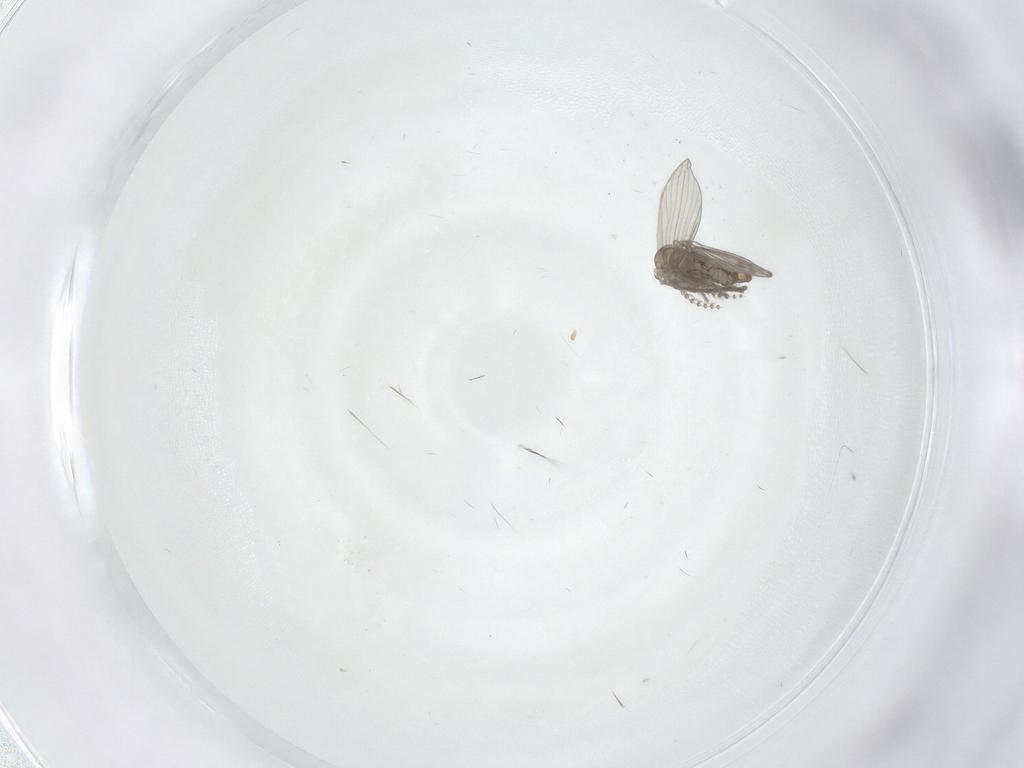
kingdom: Animalia
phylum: Arthropoda
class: Insecta
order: Diptera
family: Psychodidae
